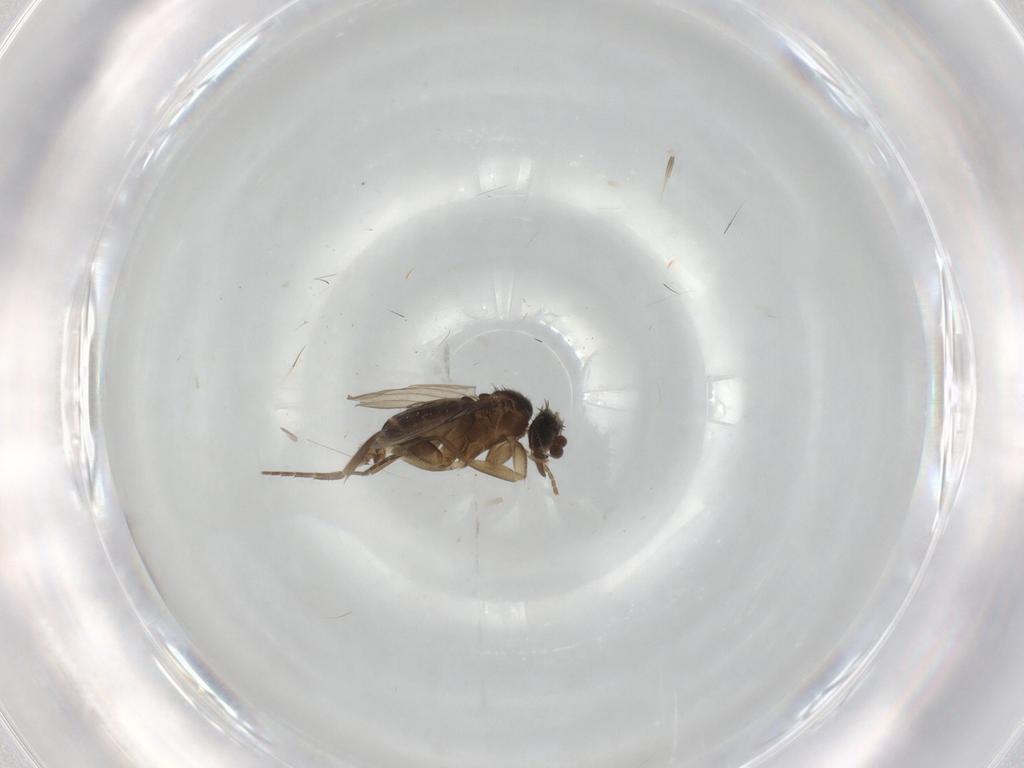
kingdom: Animalia
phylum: Arthropoda
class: Insecta
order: Diptera
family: Phoridae
